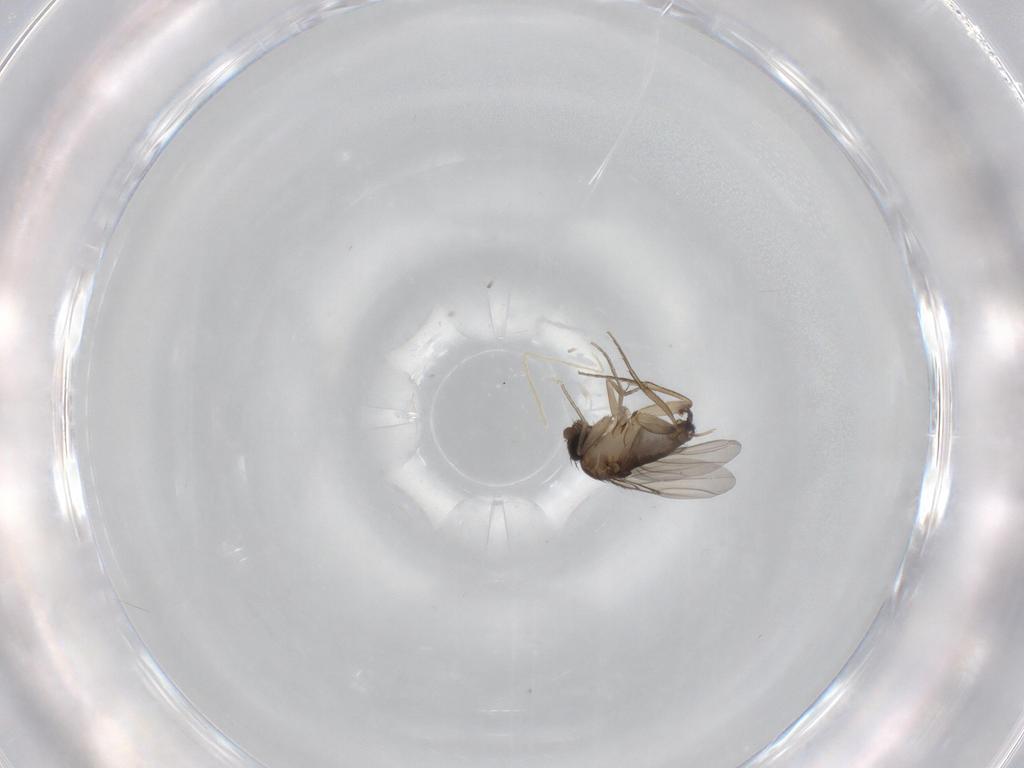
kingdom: Animalia
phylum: Arthropoda
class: Insecta
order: Diptera
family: Phoridae
